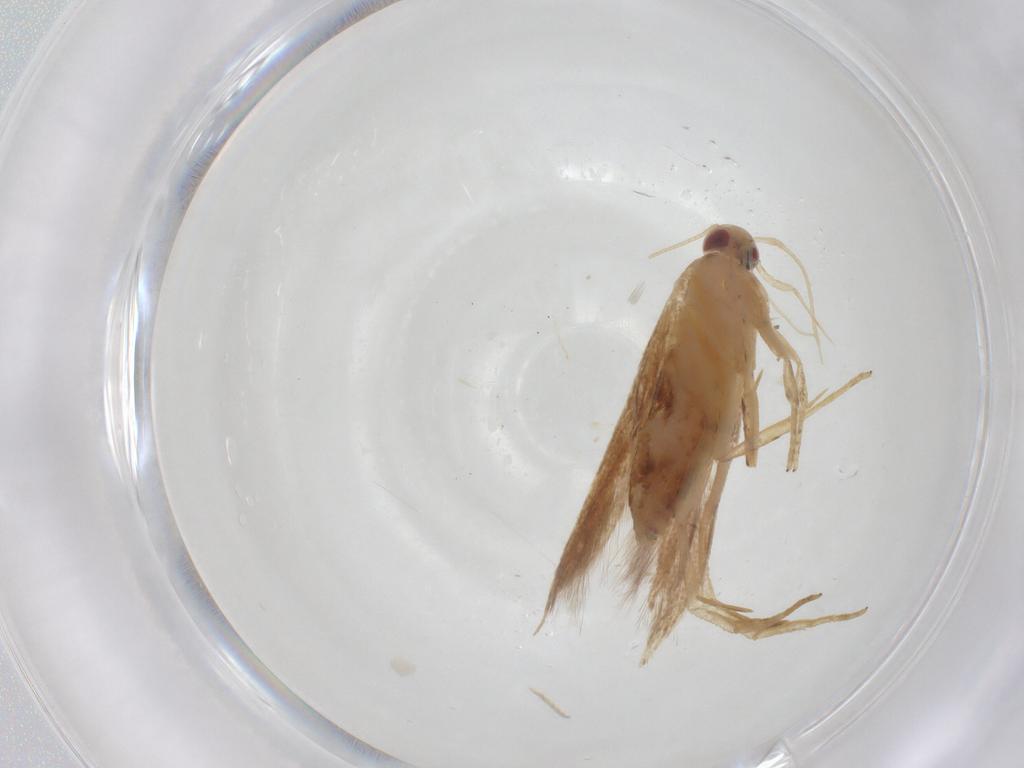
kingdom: Animalia
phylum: Arthropoda
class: Insecta
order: Lepidoptera
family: Cosmopterigidae
